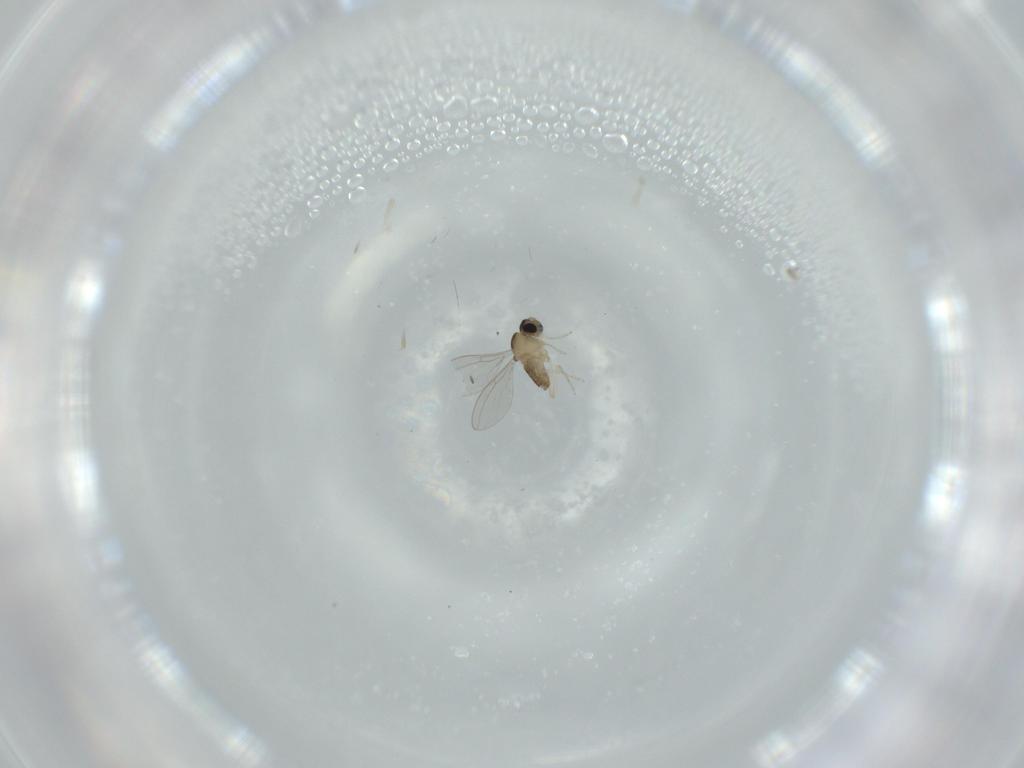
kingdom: Animalia
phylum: Arthropoda
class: Insecta
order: Diptera
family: Cecidomyiidae
